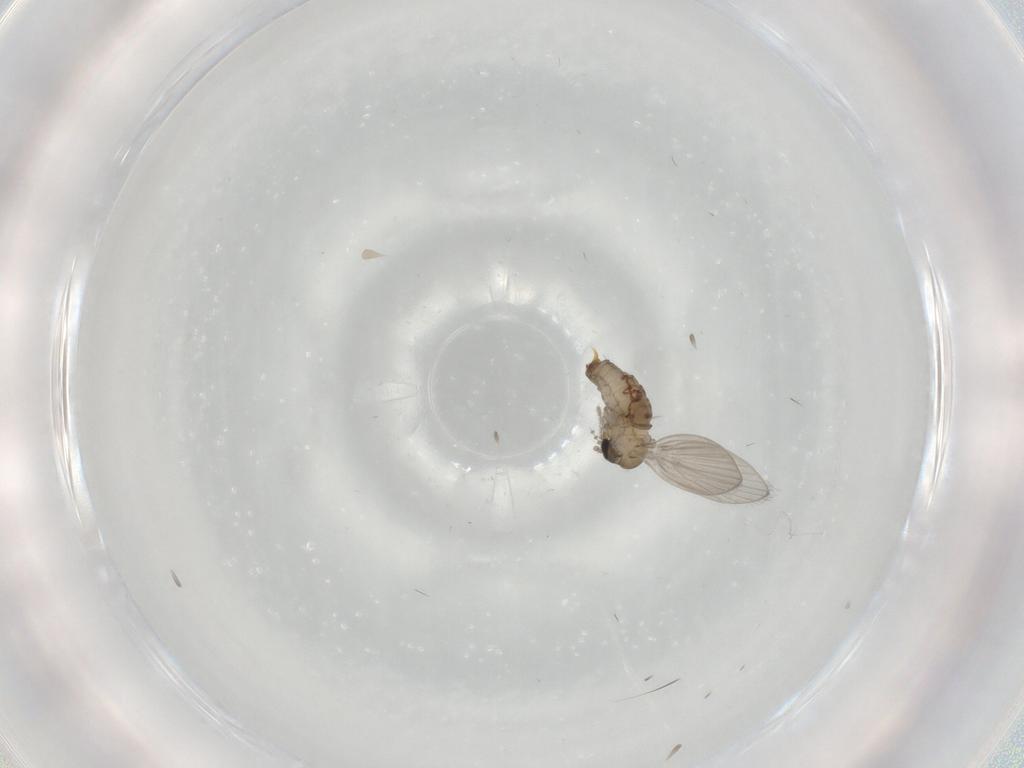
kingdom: Animalia
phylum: Arthropoda
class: Insecta
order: Diptera
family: Psychodidae
